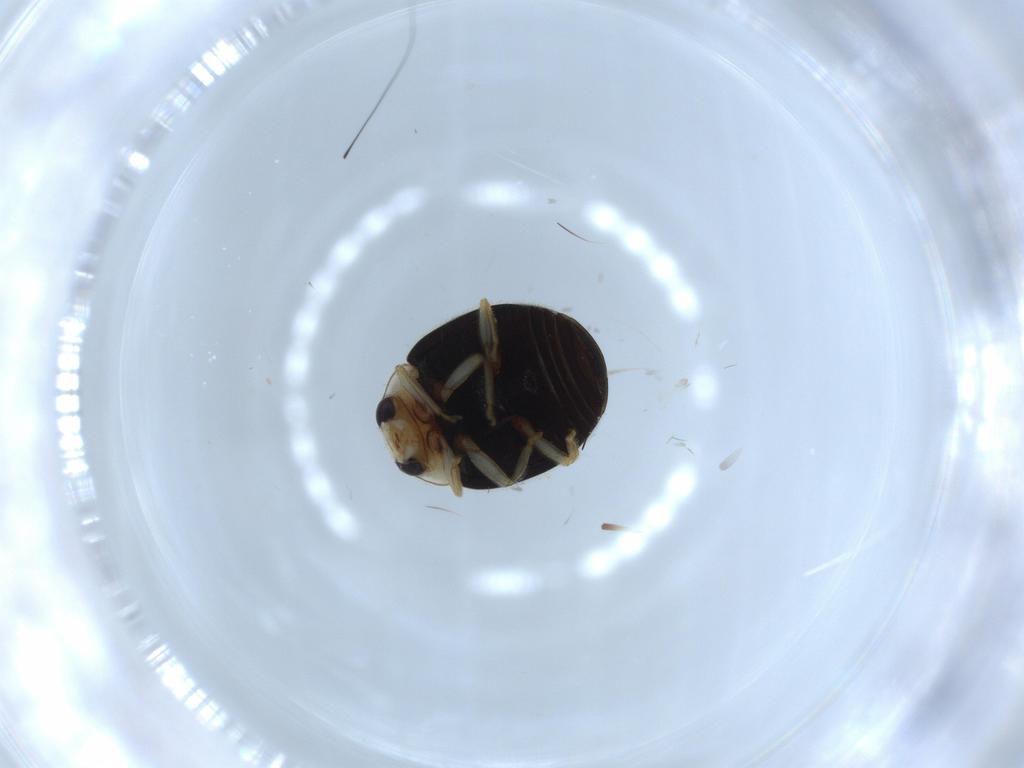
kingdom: Animalia
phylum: Arthropoda
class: Insecta
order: Coleoptera
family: Coccinellidae
